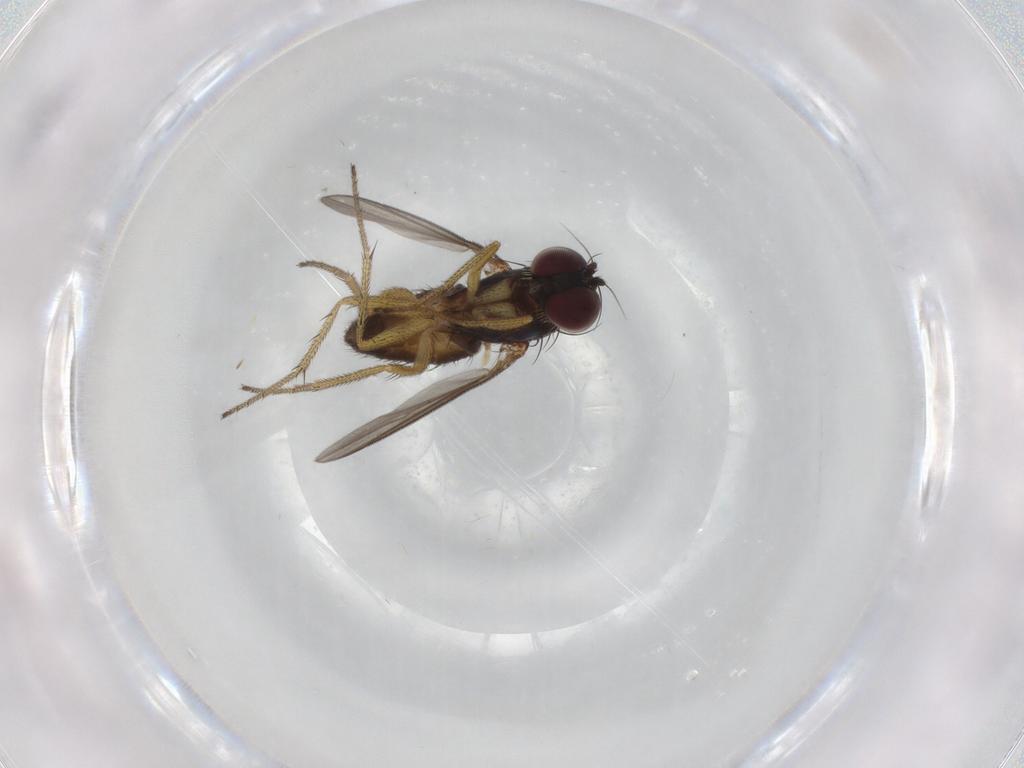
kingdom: Animalia
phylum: Arthropoda
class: Insecta
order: Diptera
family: Dolichopodidae
